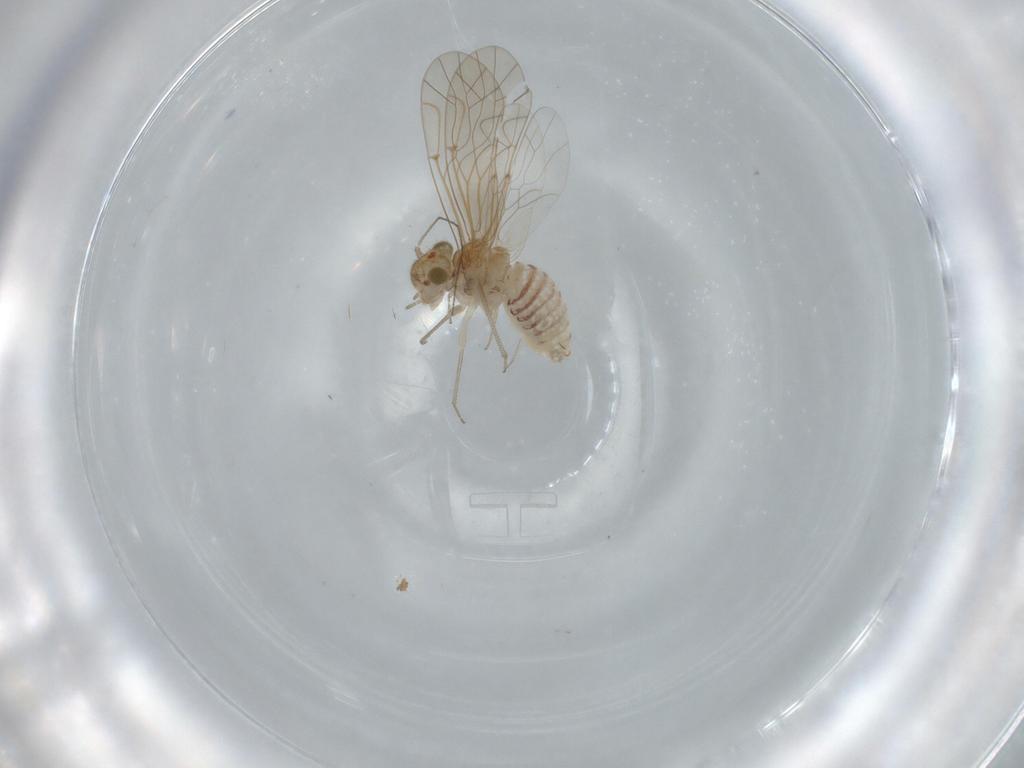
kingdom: Animalia
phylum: Arthropoda
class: Insecta
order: Psocodea
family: Lachesillidae
